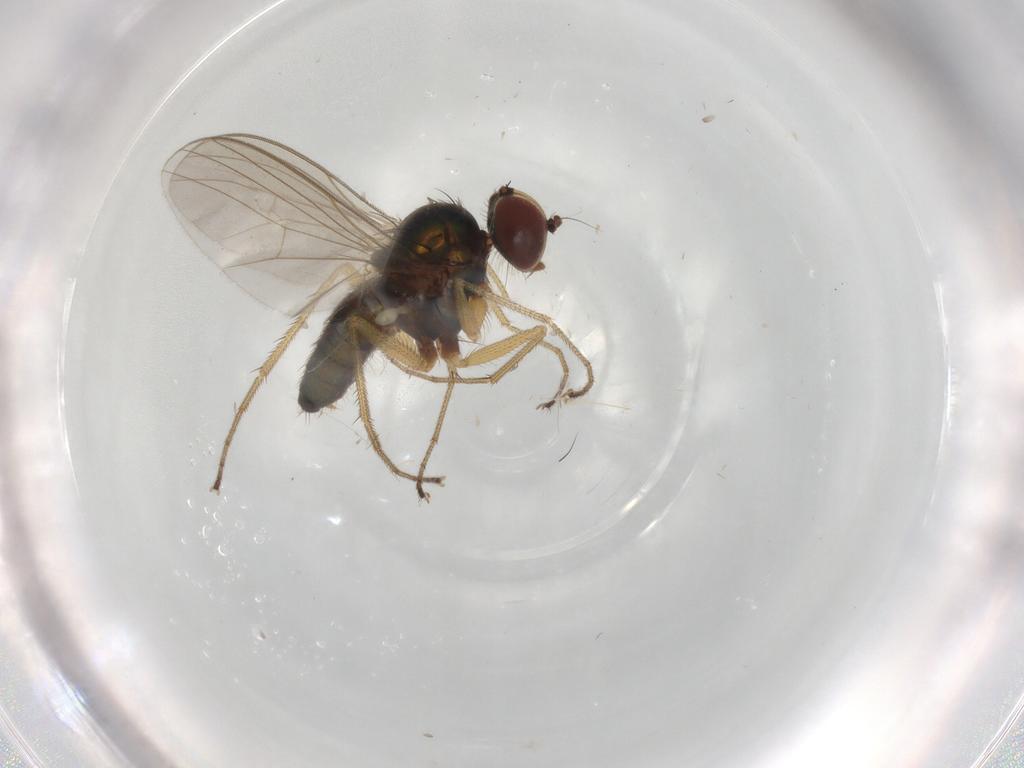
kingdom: Animalia
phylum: Arthropoda
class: Insecta
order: Diptera
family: Dolichopodidae
